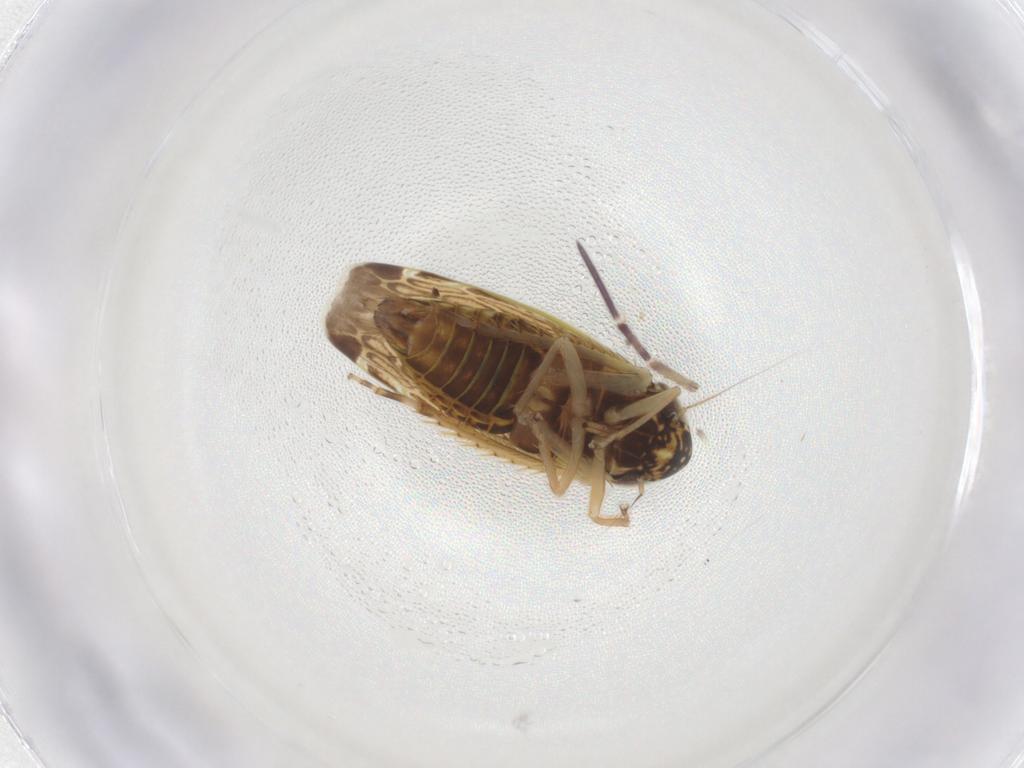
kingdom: Animalia
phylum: Arthropoda
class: Insecta
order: Hemiptera
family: Cicadellidae
